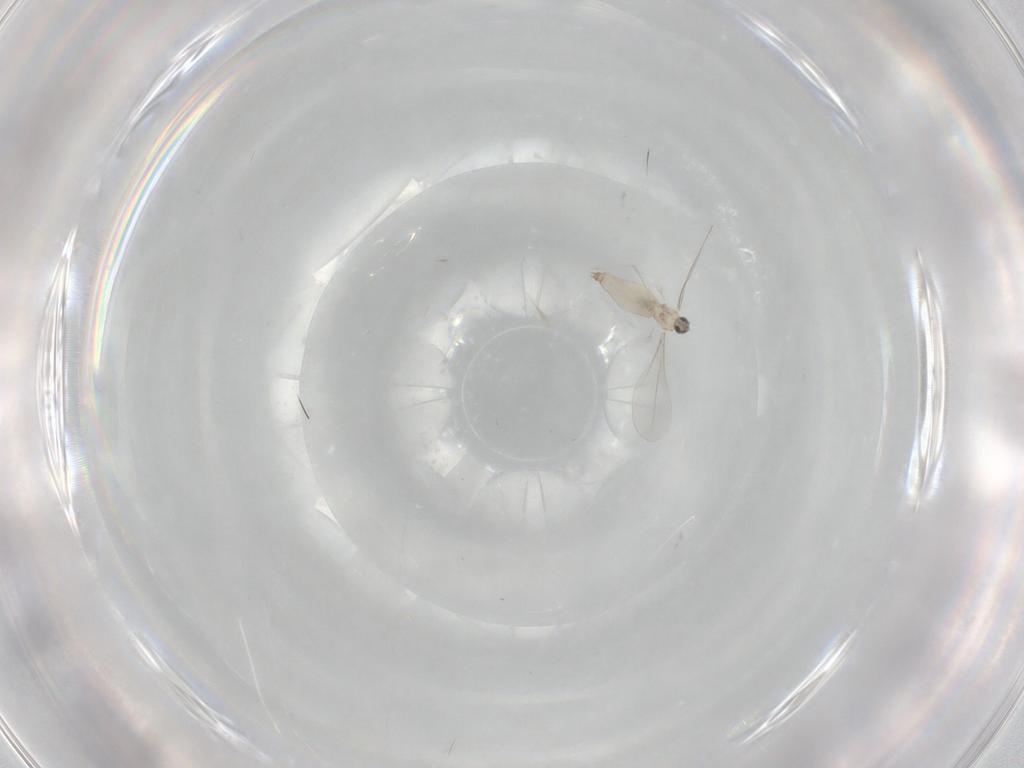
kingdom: Animalia
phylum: Arthropoda
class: Insecta
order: Diptera
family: Cecidomyiidae
